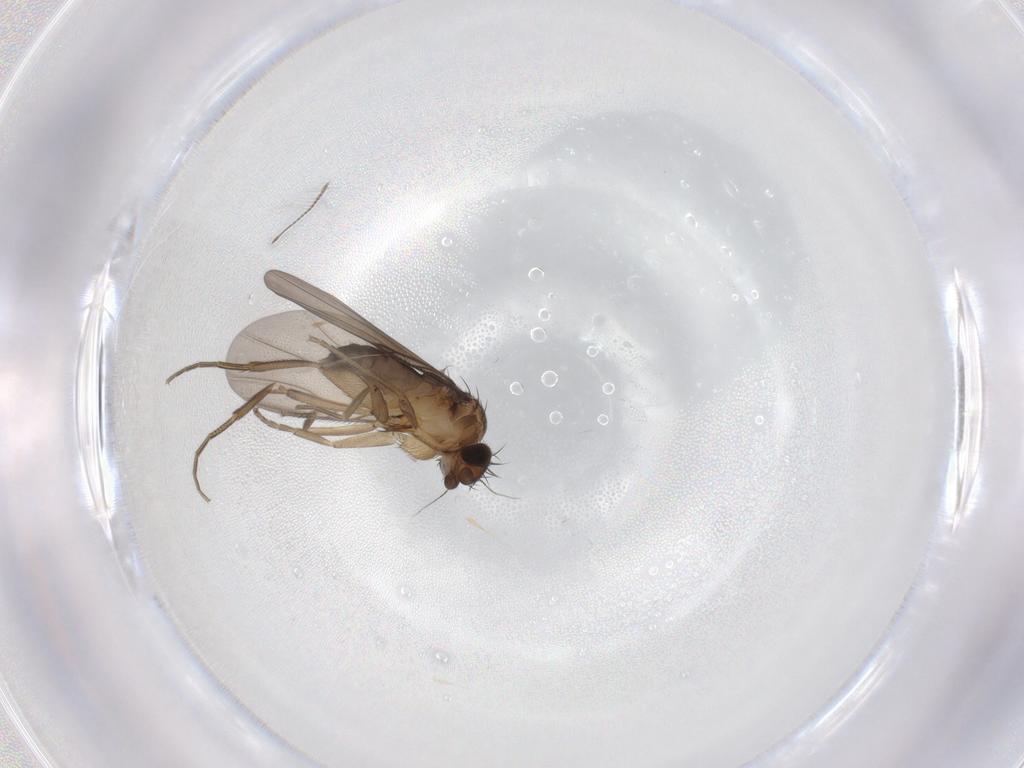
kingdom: Animalia
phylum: Arthropoda
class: Insecta
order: Diptera
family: Phoridae
